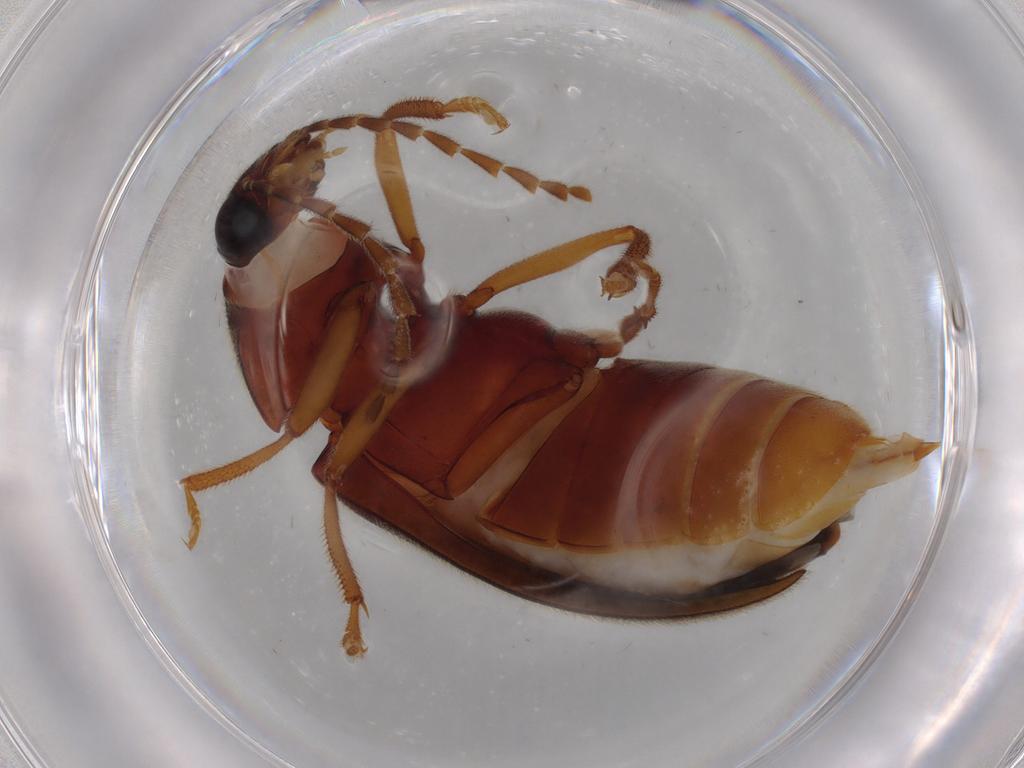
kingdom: Animalia
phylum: Arthropoda
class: Insecta
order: Coleoptera
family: Ptilodactylidae
